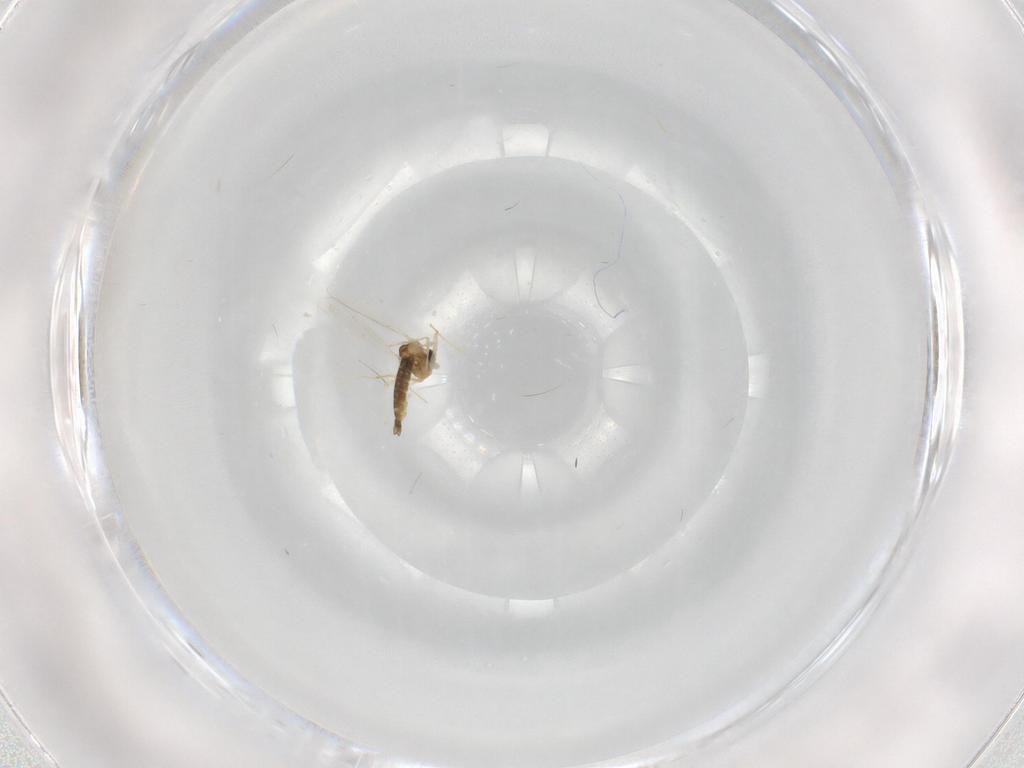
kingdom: Animalia
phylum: Arthropoda
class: Insecta
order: Diptera
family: Chironomidae
